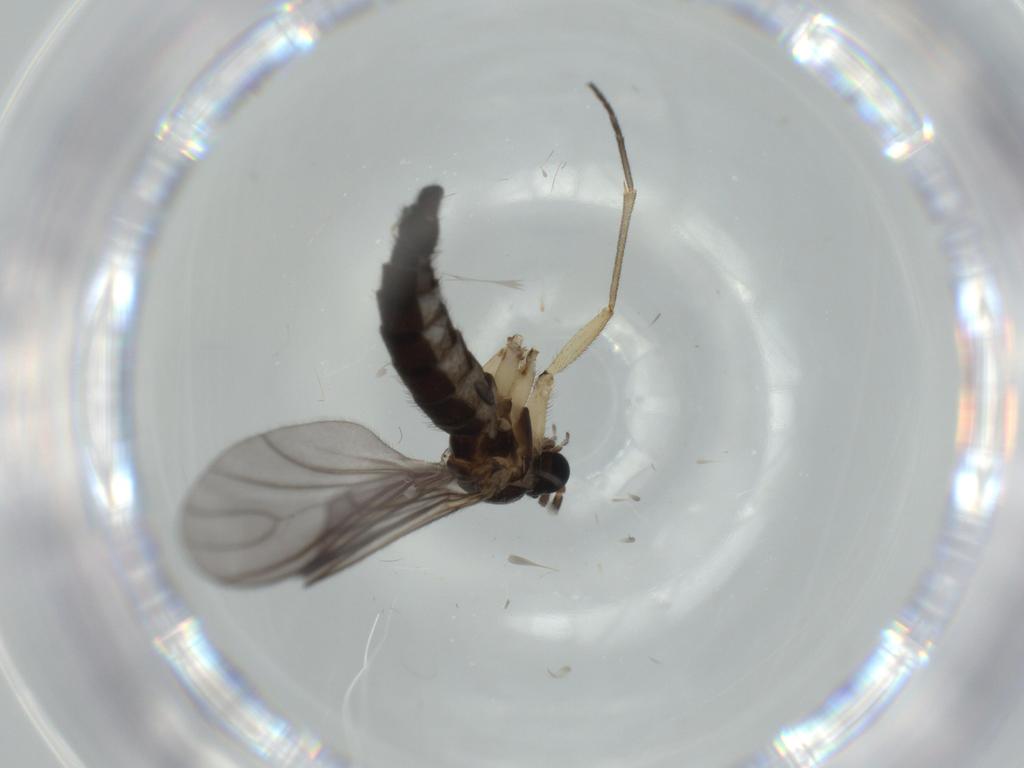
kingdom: Animalia
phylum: Arthropoda
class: Insecta
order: Diptera
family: Sciaridae
